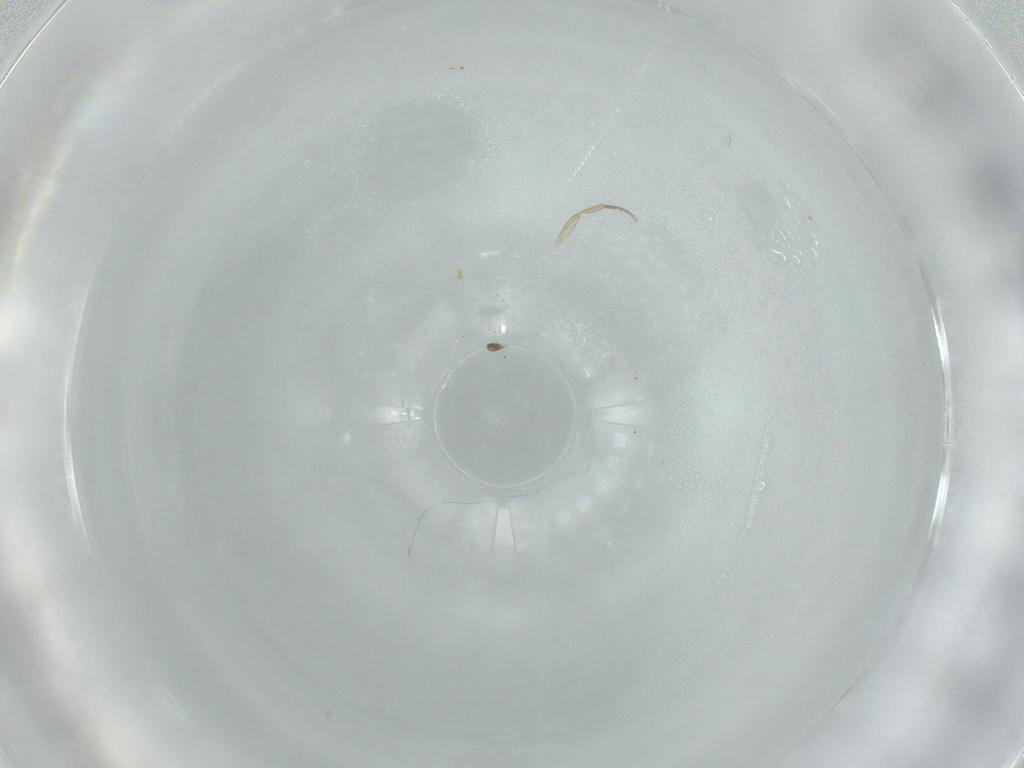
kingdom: Animalia
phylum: Arthropoda
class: Insecta
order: Diptera
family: Phoridae
